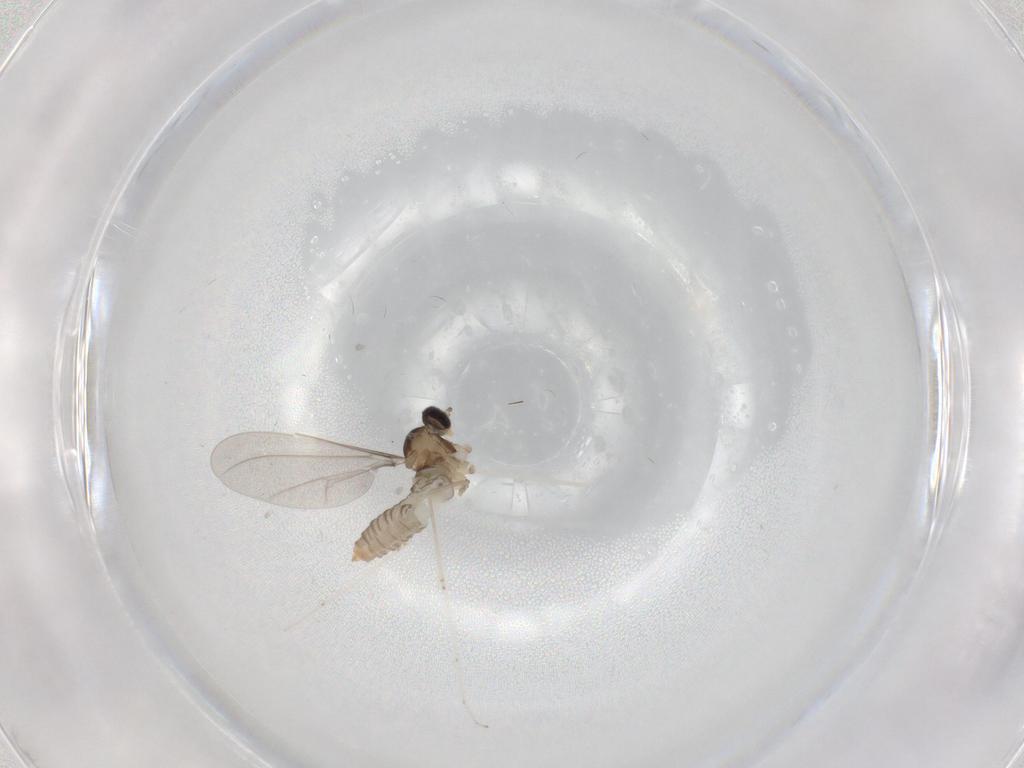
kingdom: Animalia
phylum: Arthropoda
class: Insecta
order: Diptera
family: Cecidomyiidae
